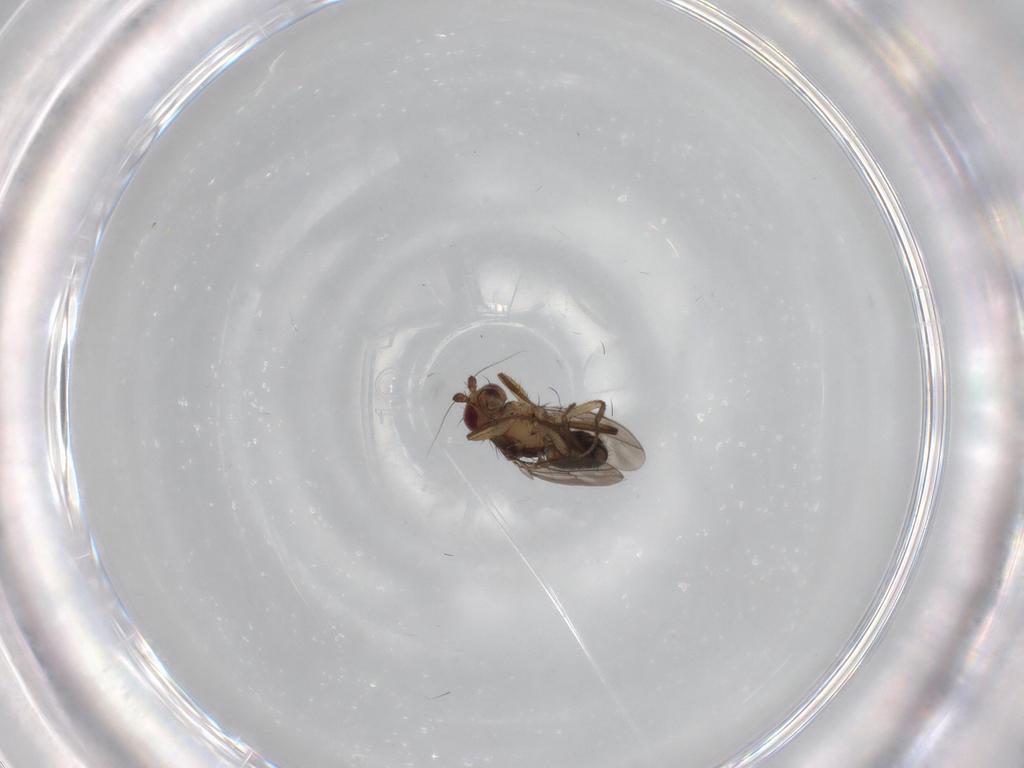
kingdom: Animalia
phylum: Arthropoda
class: Insecta
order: Diptera
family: Sphaeroceridae
